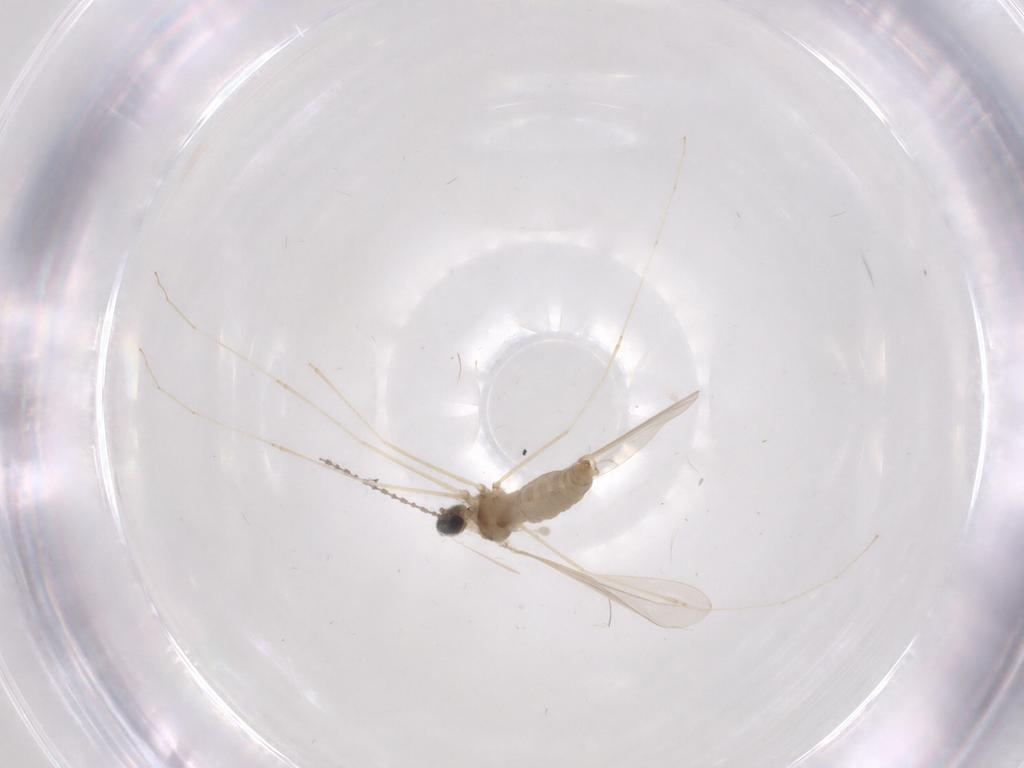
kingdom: Animalia
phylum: Arthropoda
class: Insecta
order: Diptera
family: Cecidomyiidae
